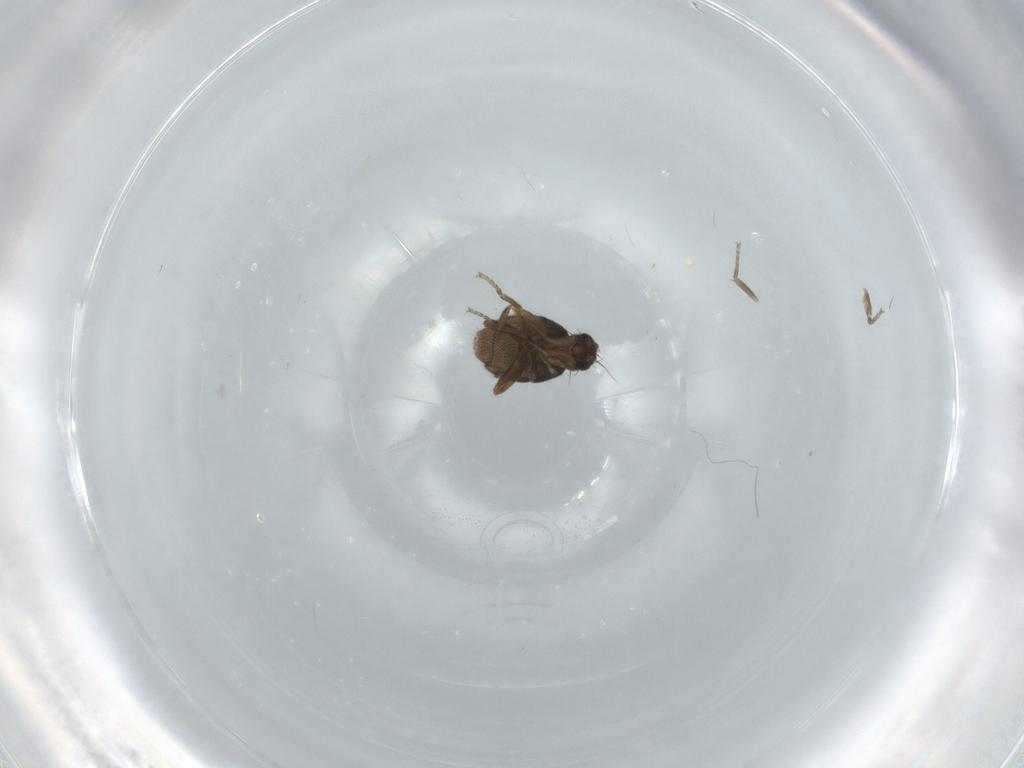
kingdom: Animalia
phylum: Arthropoda
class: Insecta
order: Diptera
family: Phoridae
